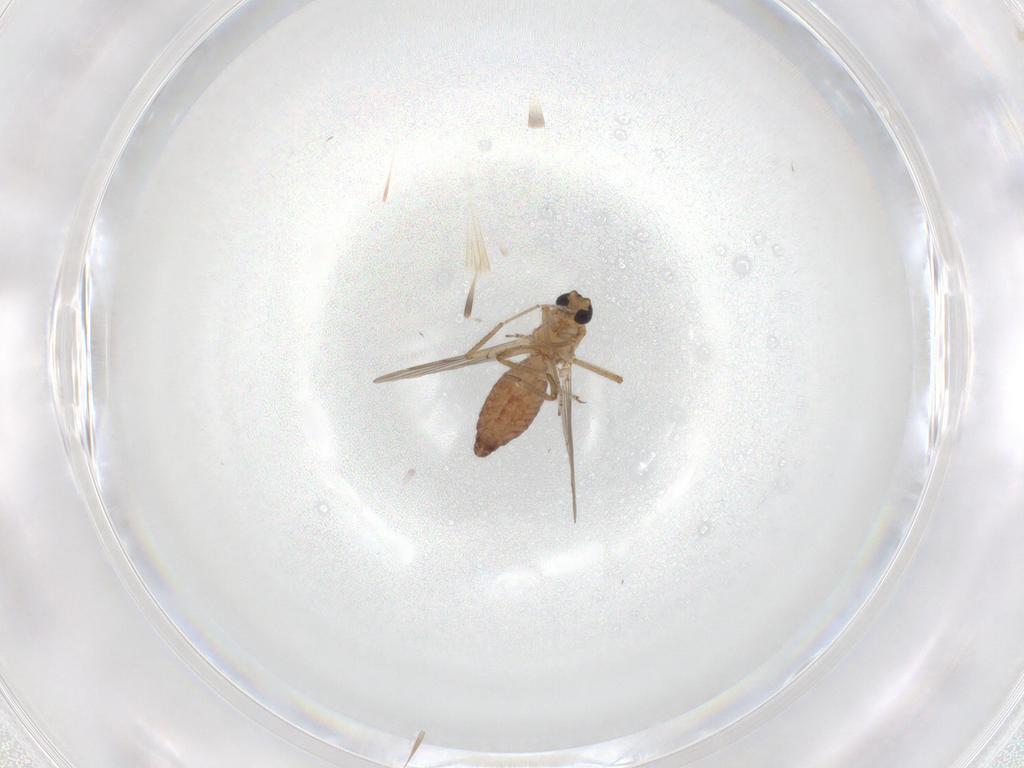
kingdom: Animalia
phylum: Arthropoda
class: Insecta
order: Diptera
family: Ceratopogonidae
